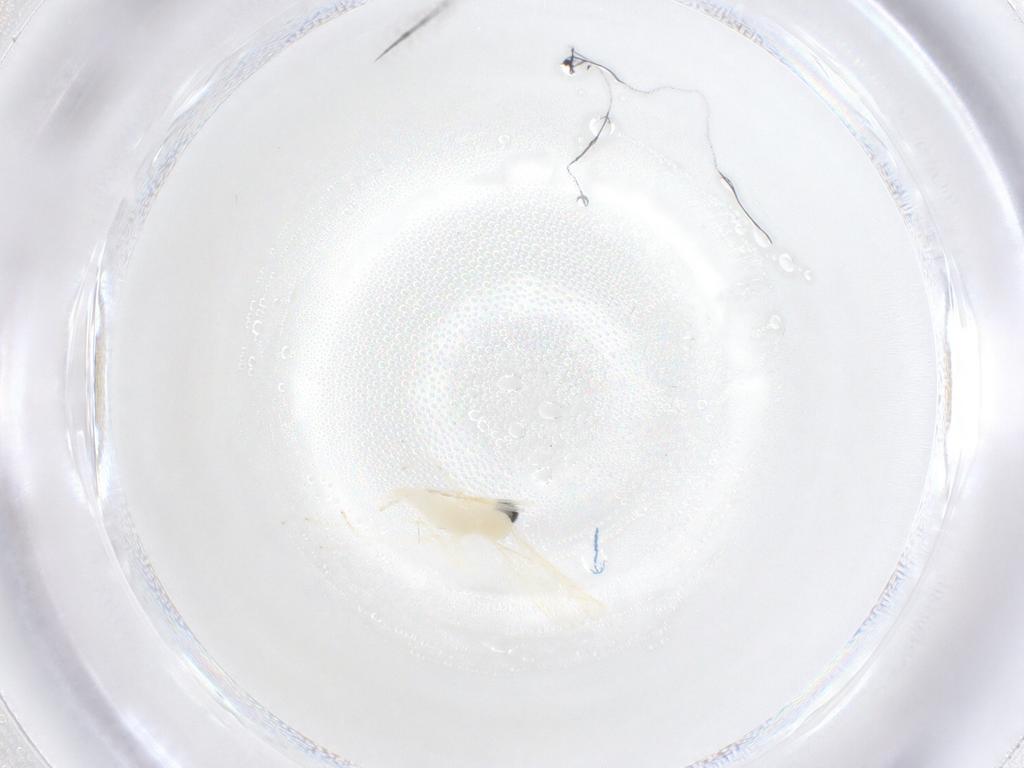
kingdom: Animalia
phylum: Arthropoda
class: Insecta
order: Diptera
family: Cecidomyiidae
